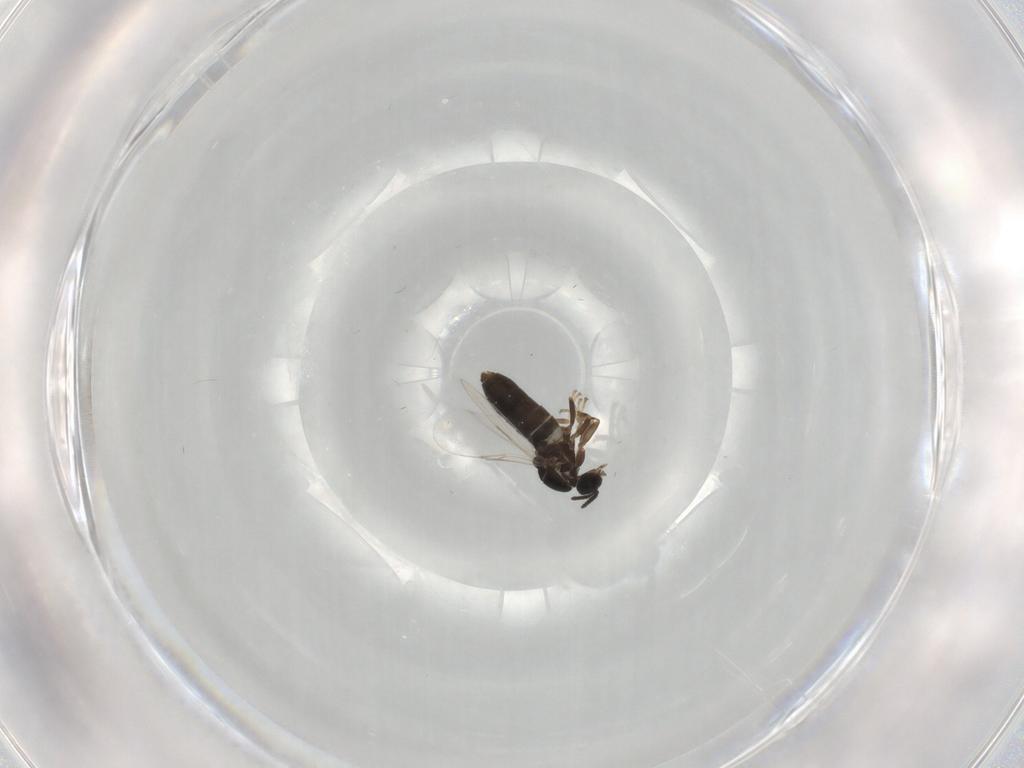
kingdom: Animalia
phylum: Arthropoda
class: Insecta
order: Diptera
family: Scatopsidae
